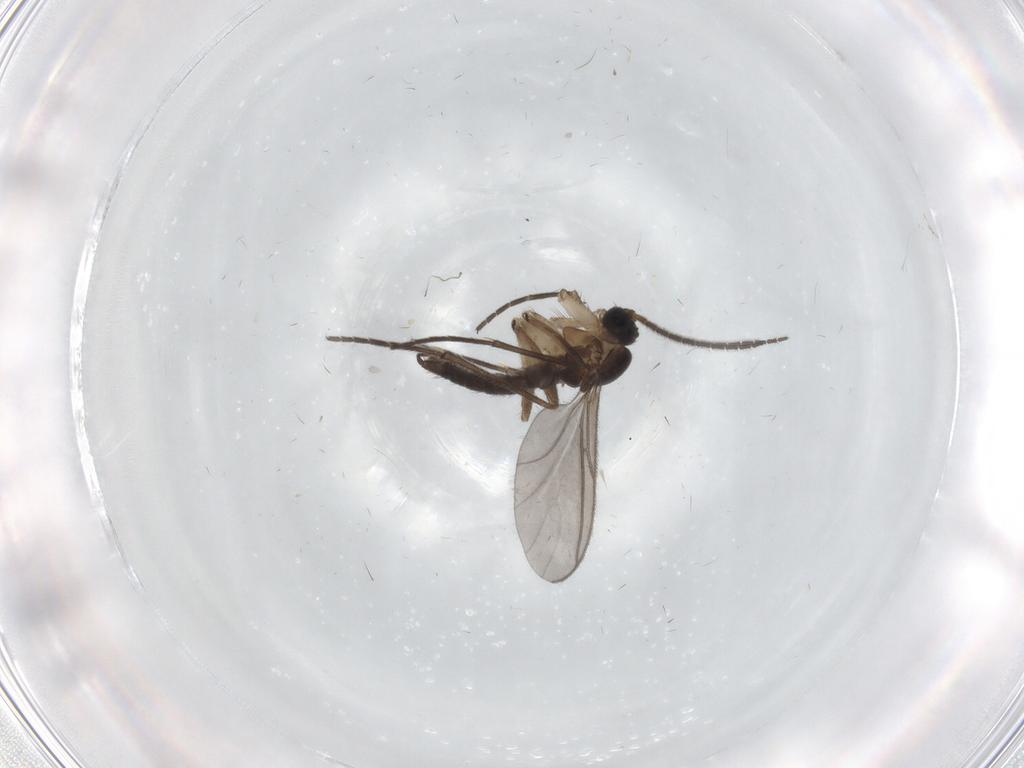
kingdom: Animalia
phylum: Arthropoda
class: Insecta
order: Diptera
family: Sciaridae
